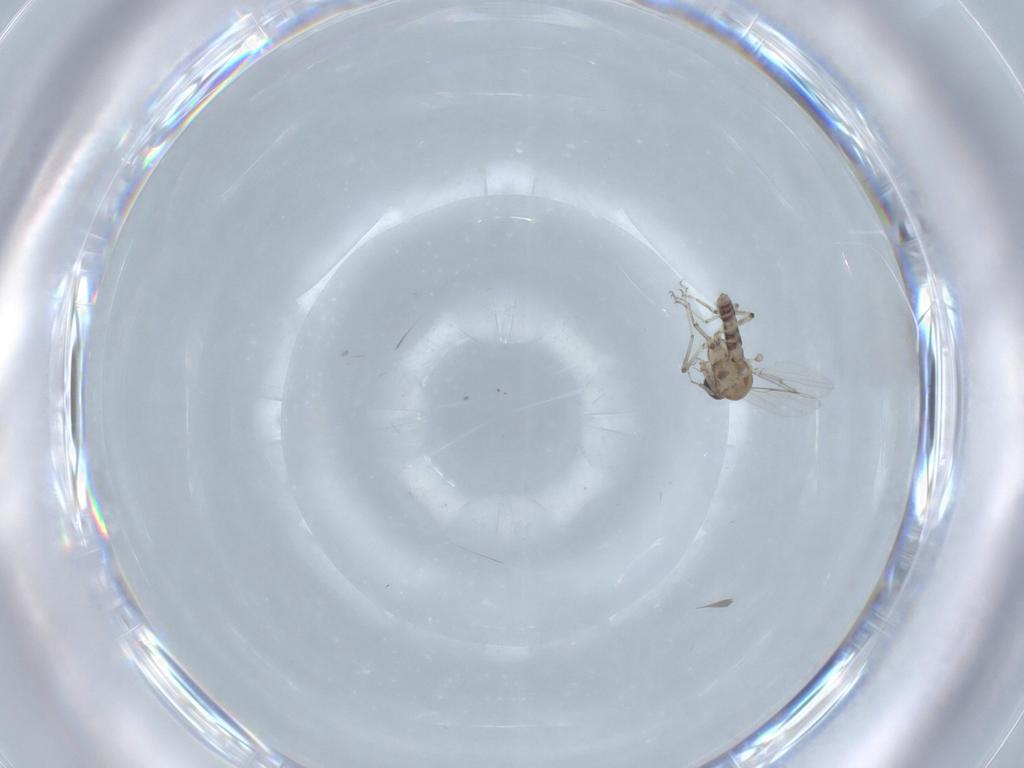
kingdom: Animalia
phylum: Arthropoda
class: Insecta
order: Diptera
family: Ceratopogonidae
